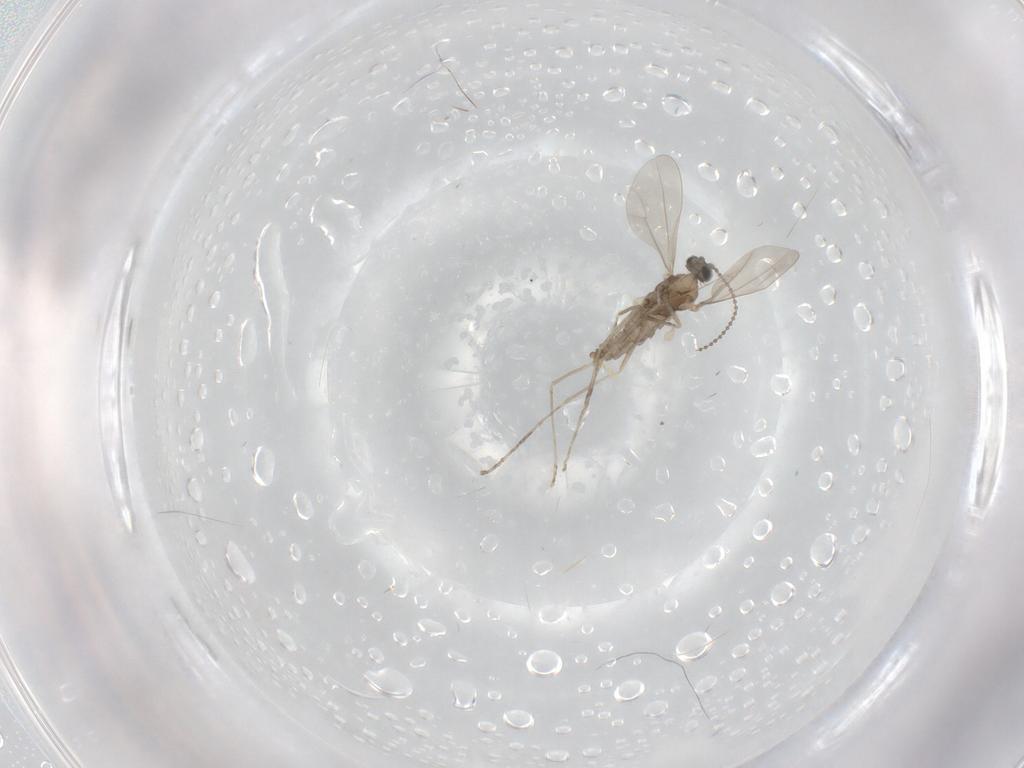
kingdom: Animalia
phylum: Arthropoda
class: Insecta
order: Diptera
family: Cecidomyiidae
